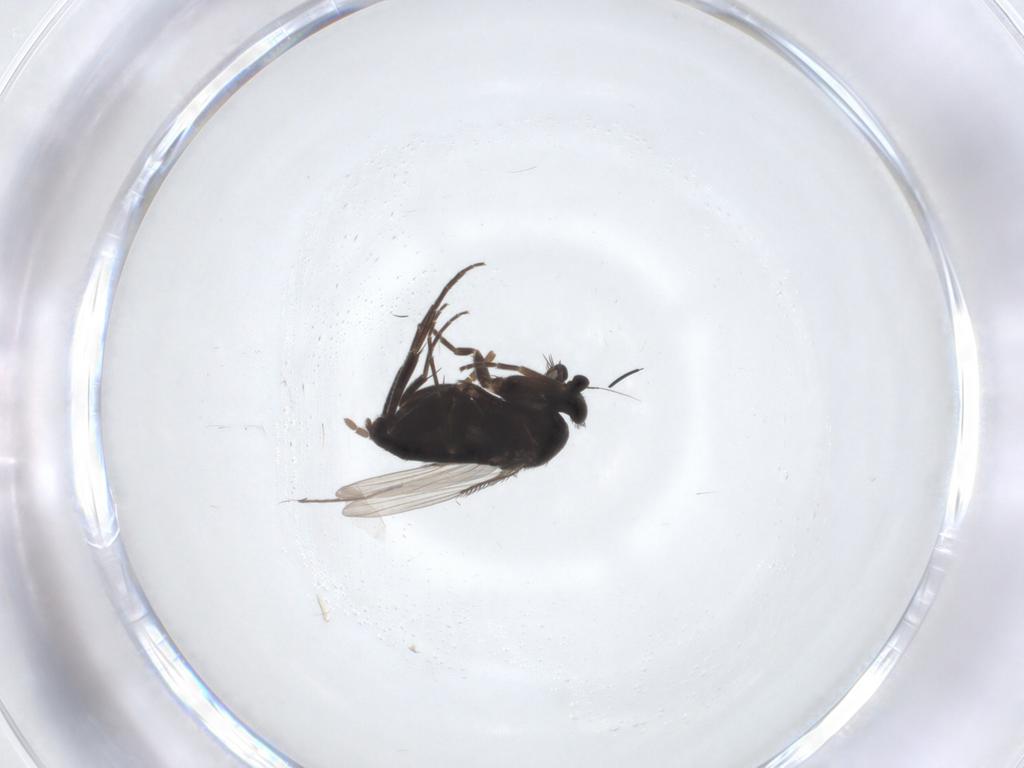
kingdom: Animalia
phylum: Arthropoda
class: Insecta
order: Diptera
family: Phoridae
